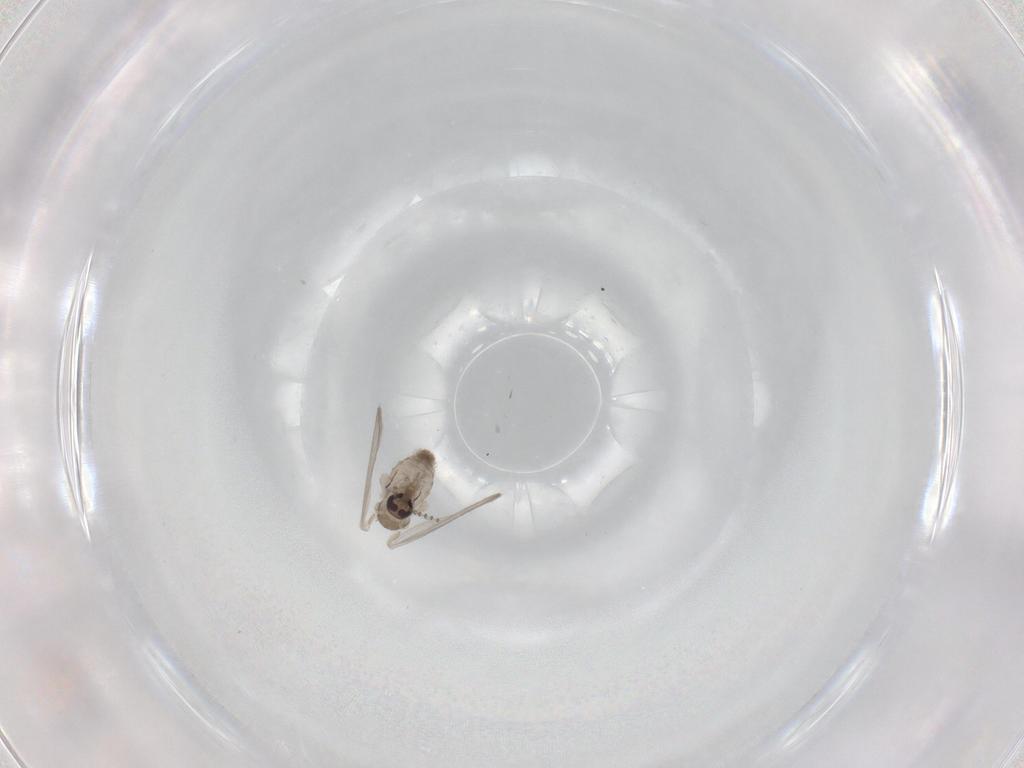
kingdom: Animalia
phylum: Arthropoda
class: Insecta
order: Diptera
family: Psychodidae
